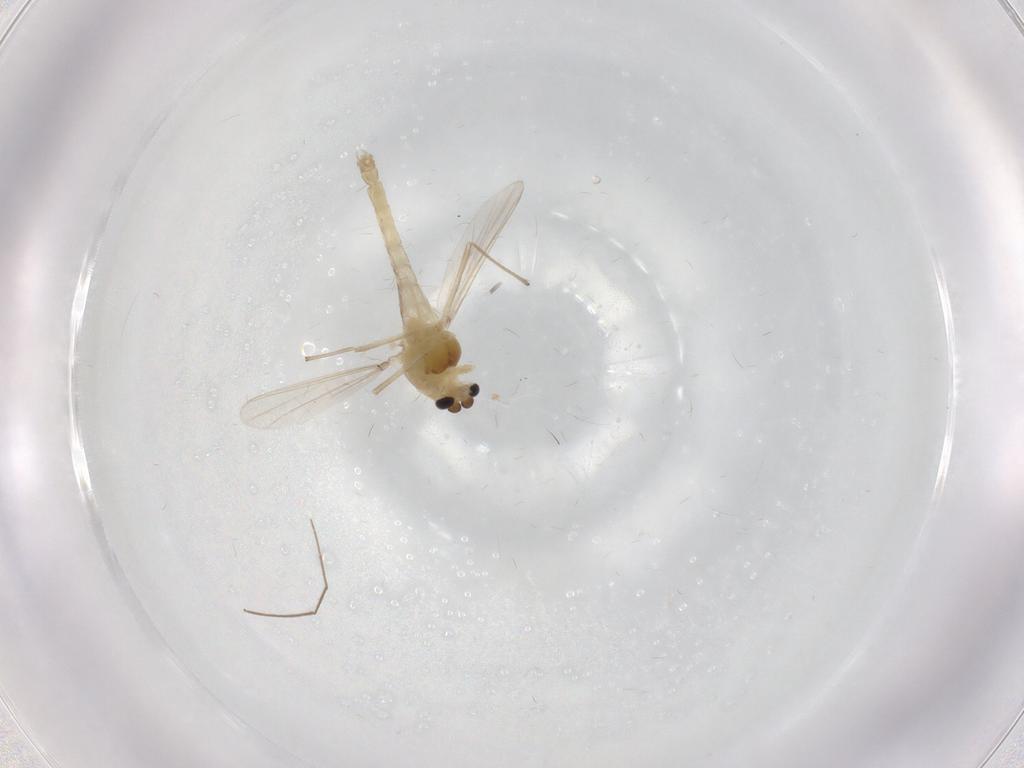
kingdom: Animalia
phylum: Arthropoda
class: Insecta
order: Diptera
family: Chironomidae
